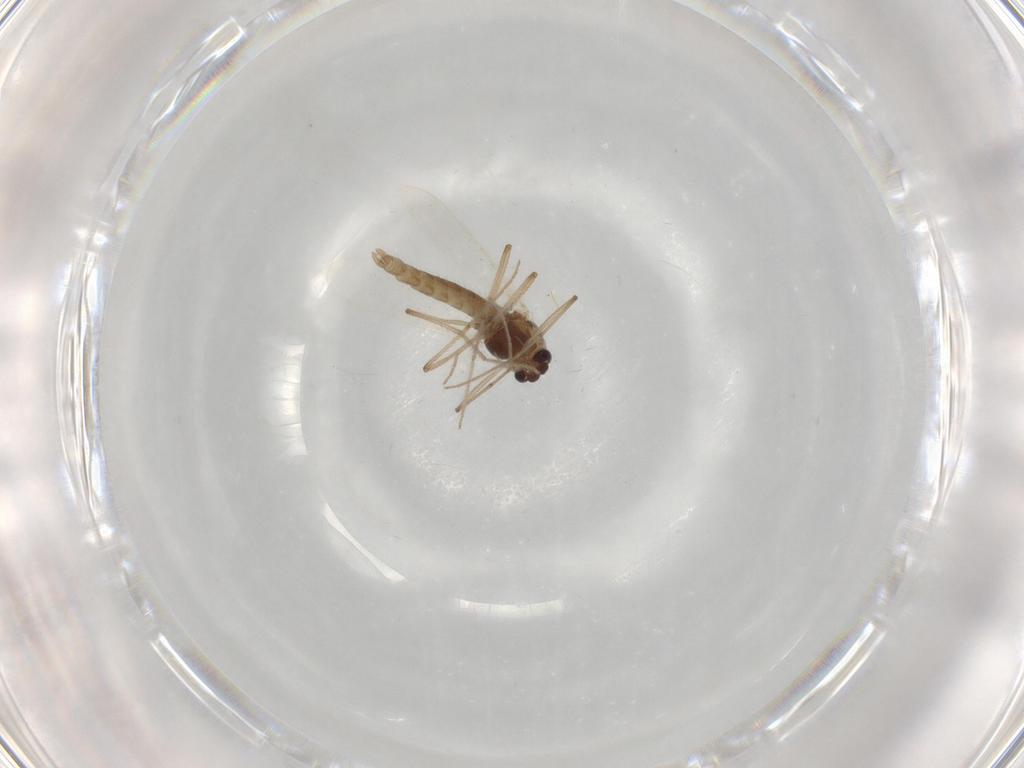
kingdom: Animalia
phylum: Arthropoda
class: Insecta
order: Diptera
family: Chironomidae
